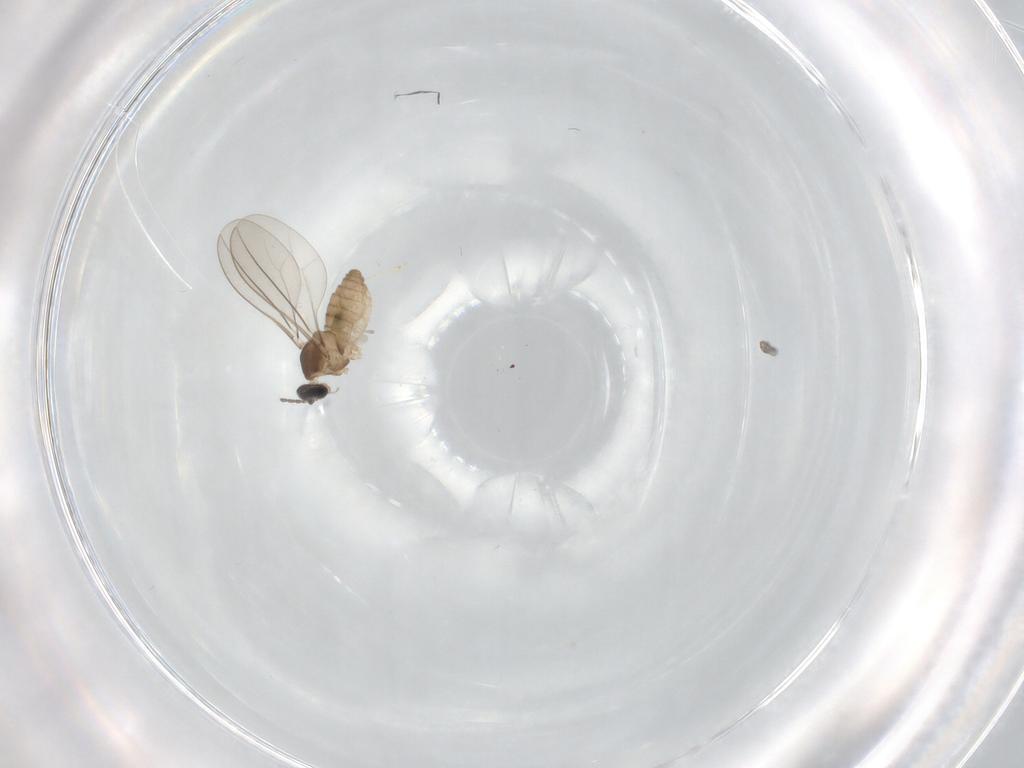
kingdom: Animalia
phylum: Arthropoda
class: Insecta
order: Diptera
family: Cecidomyiidae
